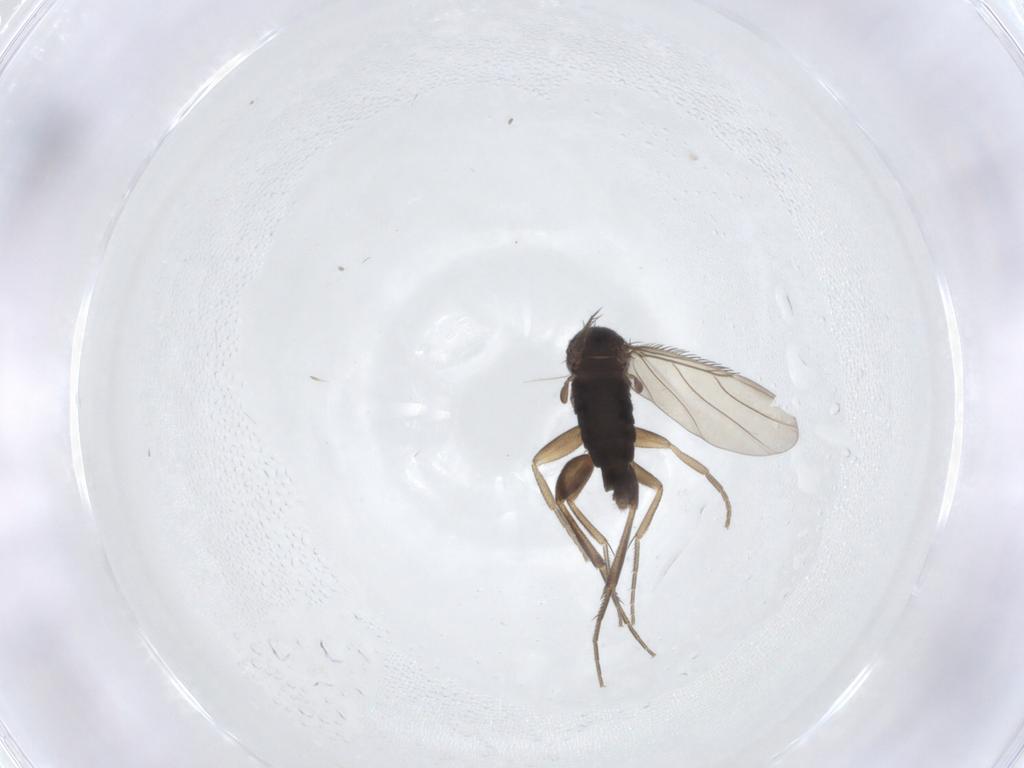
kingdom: Animalia
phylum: Arthropoda
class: Insecta
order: Diptera
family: Phoridae
